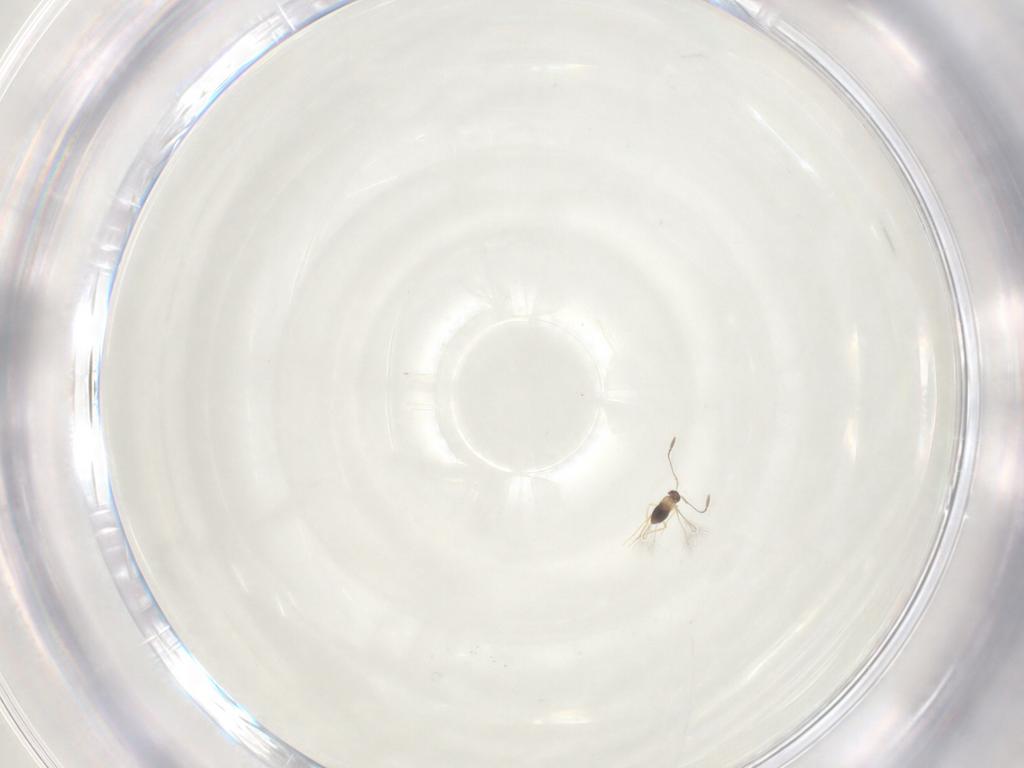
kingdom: Animalia
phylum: Arthropoda
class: Insecta
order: Hymenoptera
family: Mymaridae
